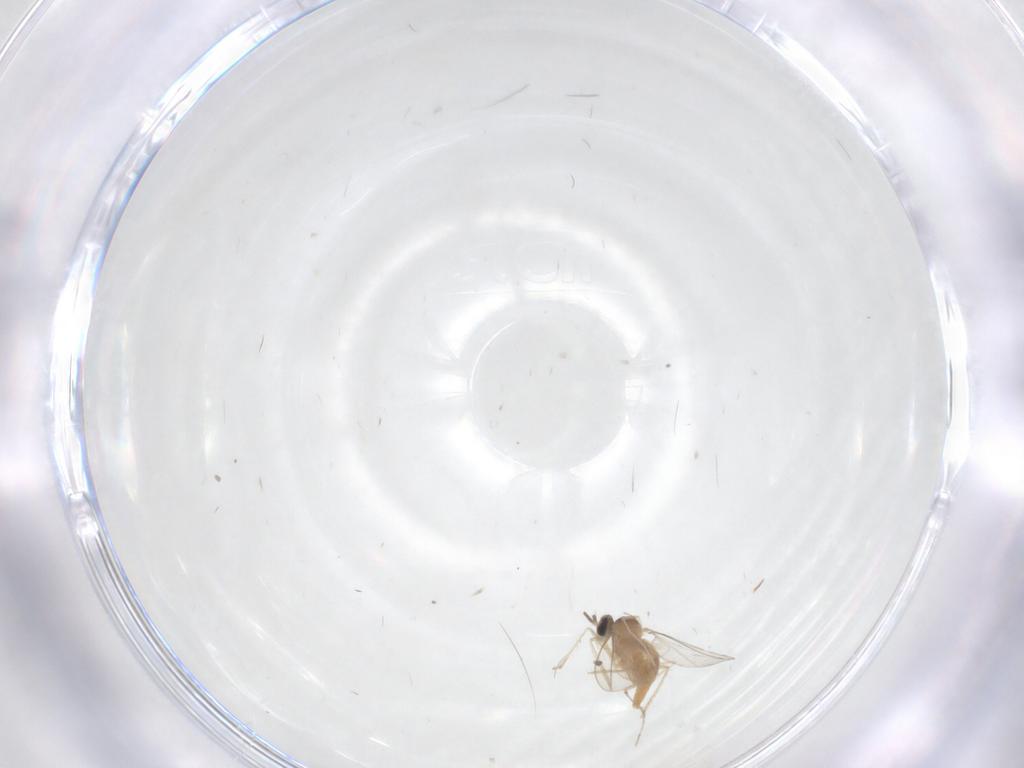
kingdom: Animalia
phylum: Arthropoda
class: Insecta
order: Diptera
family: Cecidomyiidae
